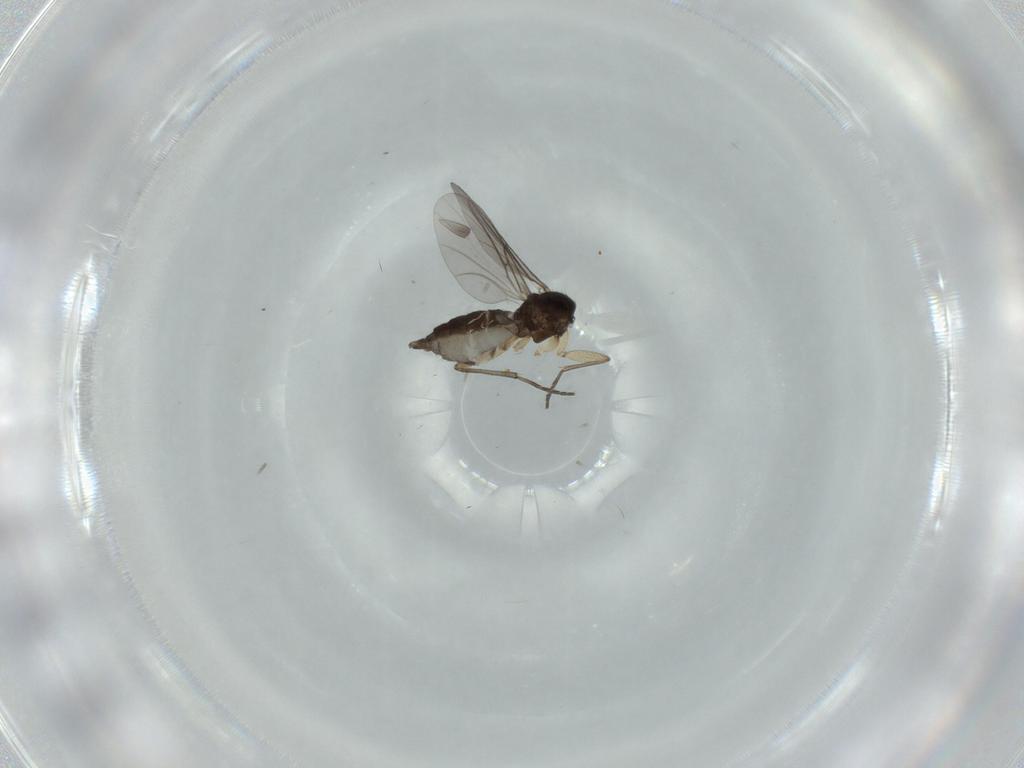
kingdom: Animalia
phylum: Arthropoda
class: Insecta
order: Diptera
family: Sciaridae
